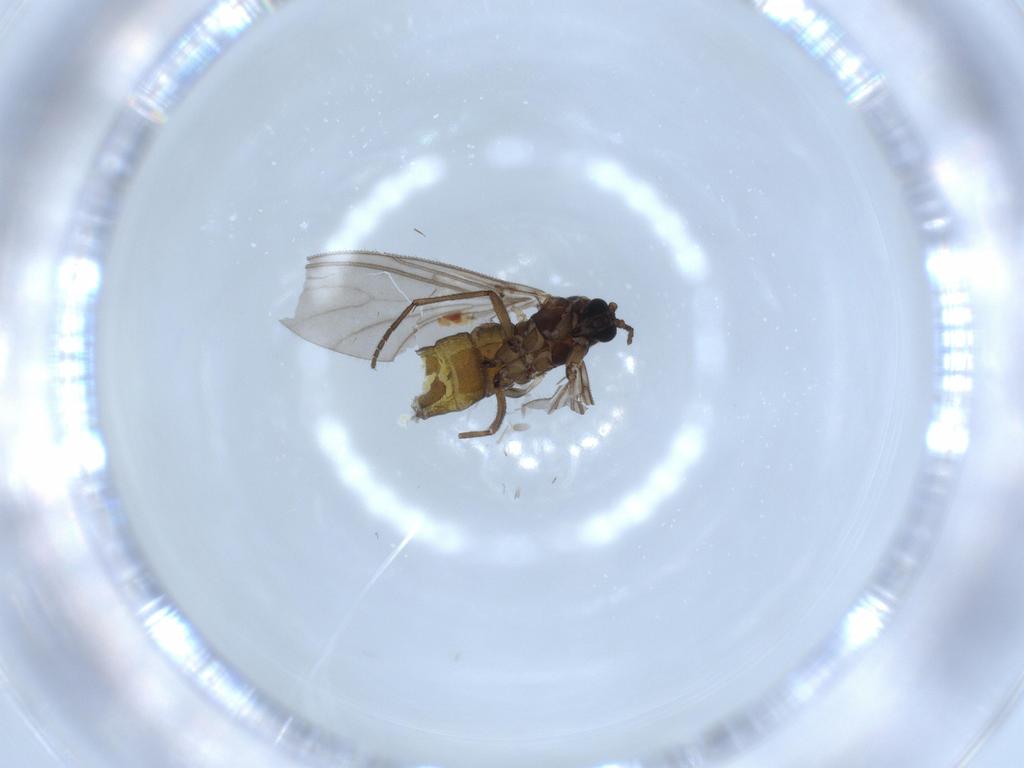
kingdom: Animalia
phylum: Arthropoda
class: Insecta
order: Diptera
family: Sciaridae
